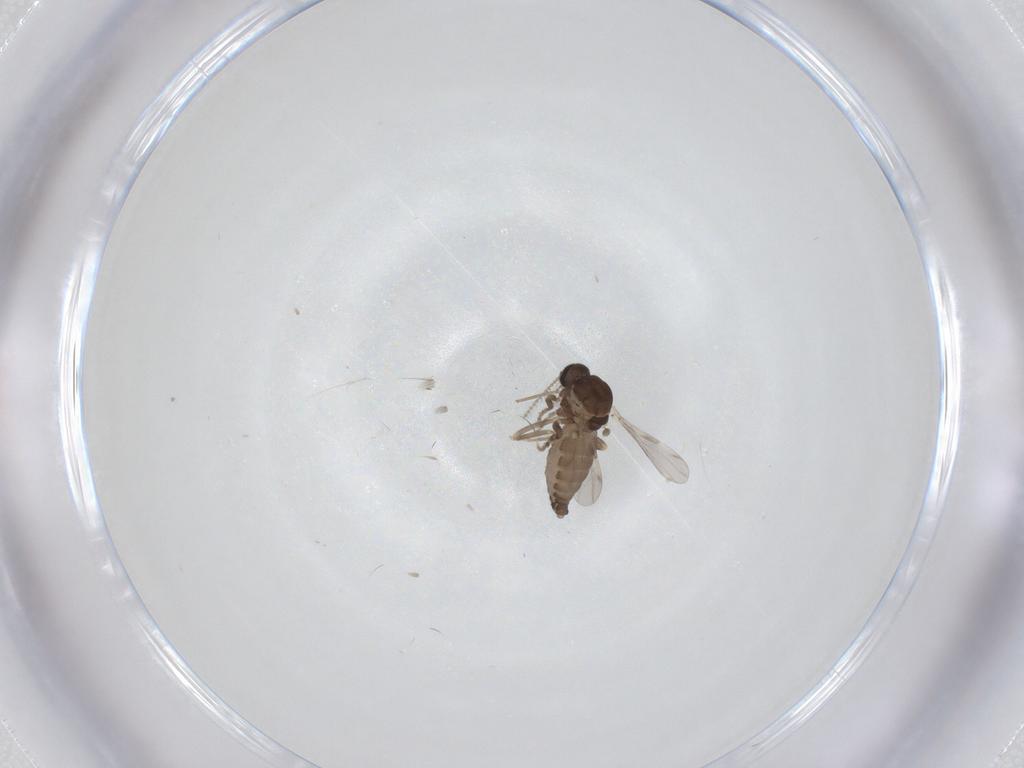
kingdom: Animalia
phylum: Arthropoda
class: Insecta
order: Diptera
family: Ceratopogonidae
